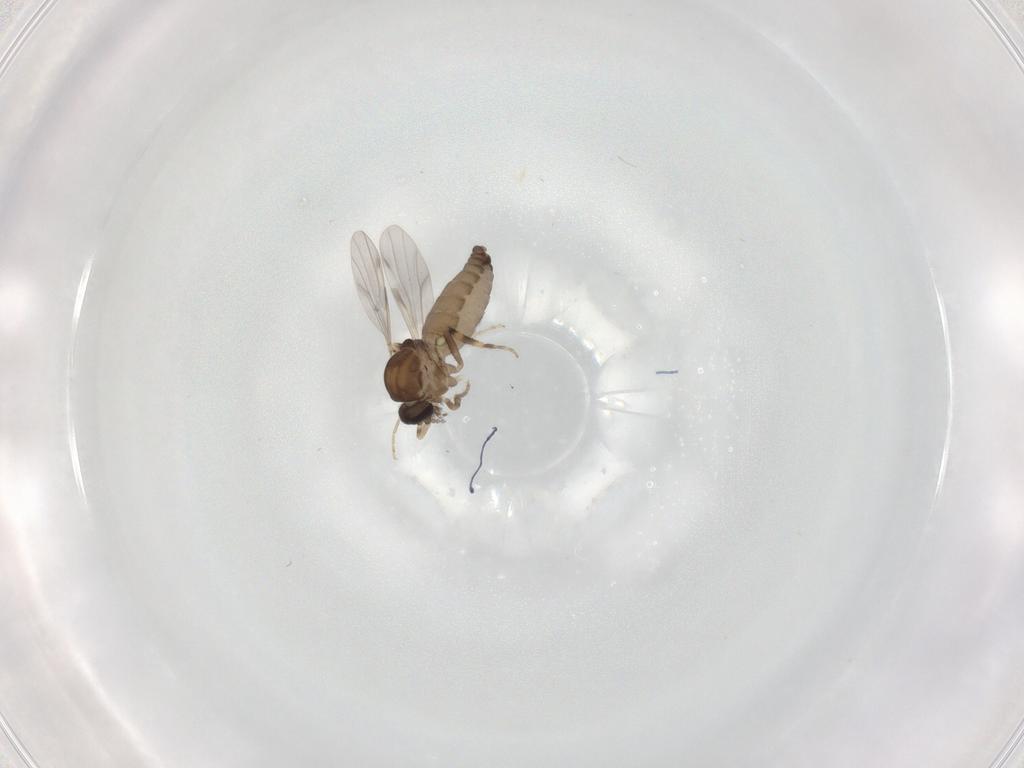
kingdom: Animalia
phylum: Arthropoda
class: Insecta
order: Diptera
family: Ceratopogonidae
